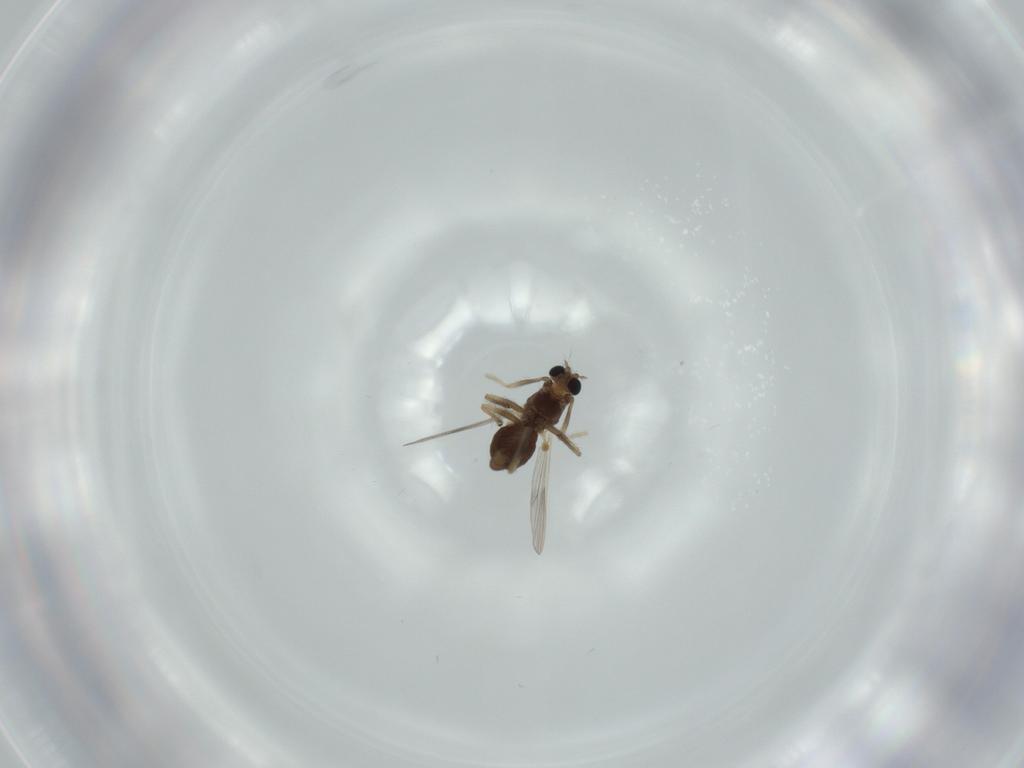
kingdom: Animalia
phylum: Arthropoda
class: Insecta
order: Diptera
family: Chironomidae
